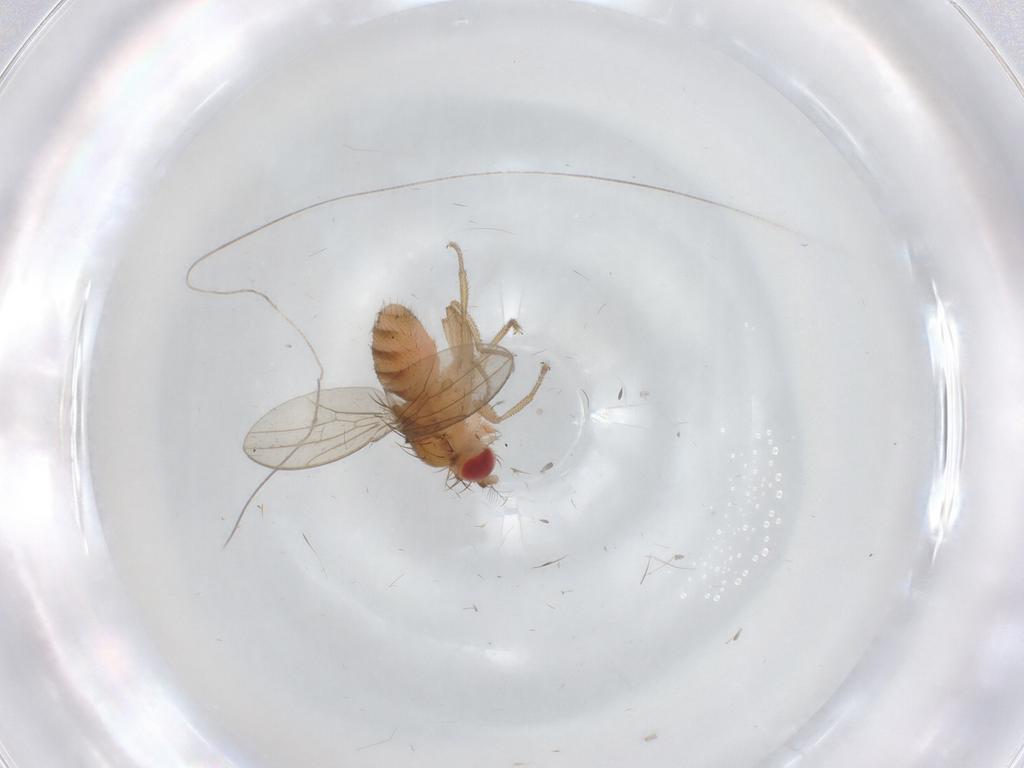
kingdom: Animalia
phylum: Arthropoda
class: Insecta
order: Diptera
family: Drosophilidae
